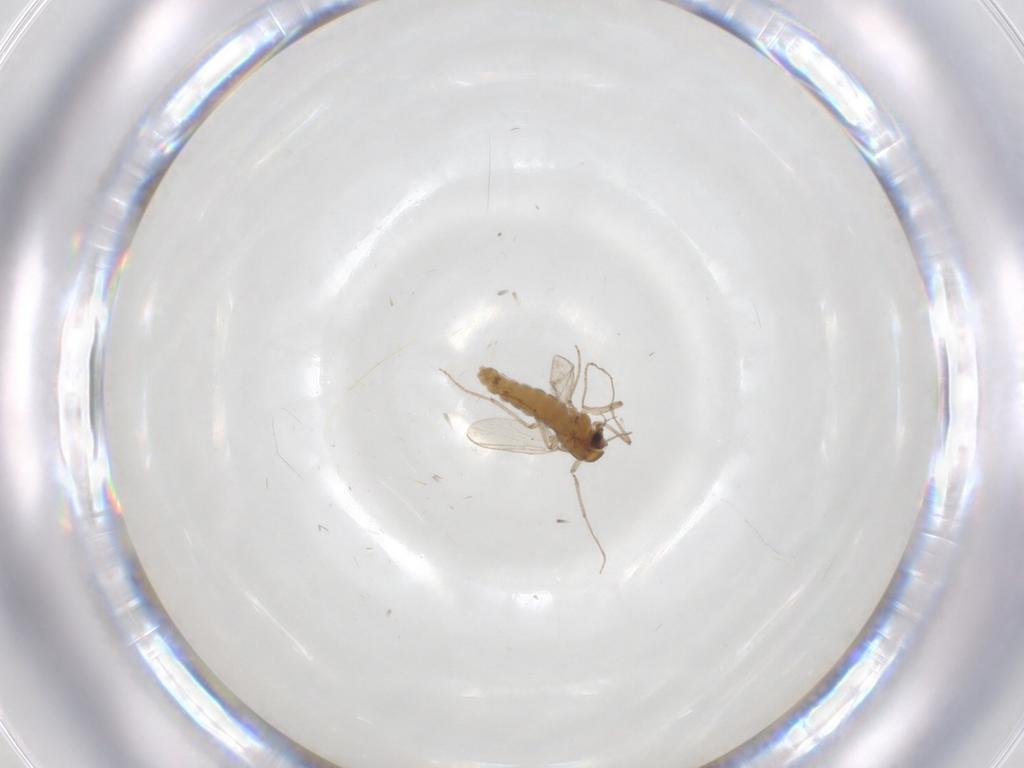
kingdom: Animalia
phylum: Arthropoda
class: Insecta
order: Diptera
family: Chironomidae
